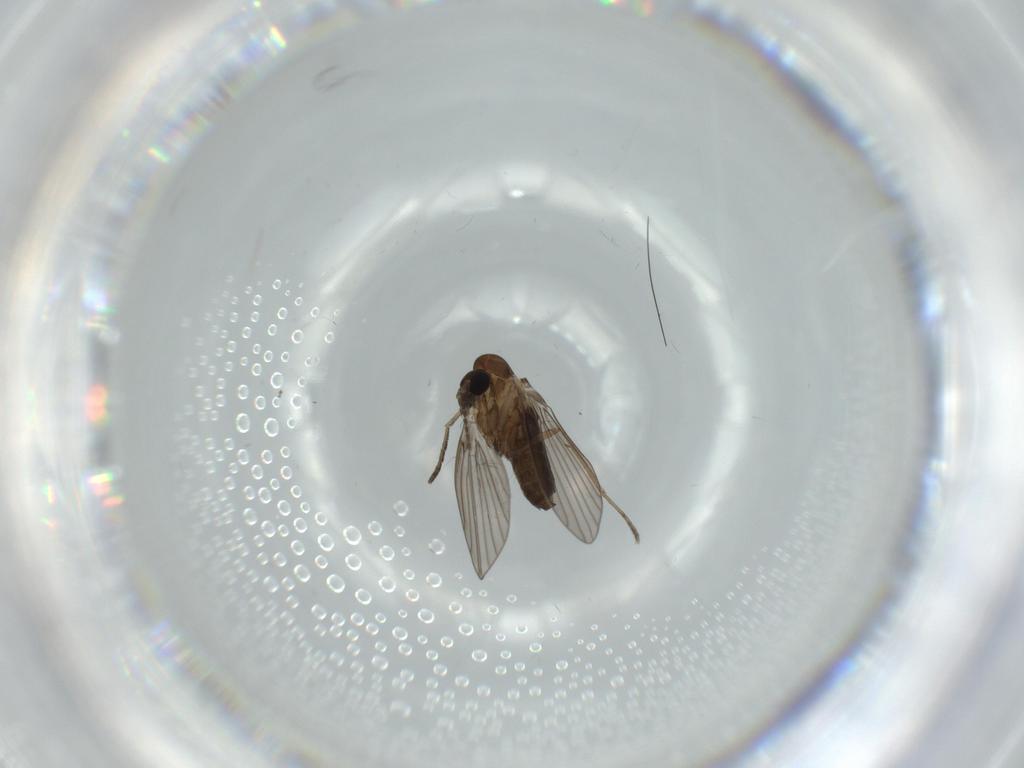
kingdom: Animalia
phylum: Arthropoda
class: Insecta
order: Diptera
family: Psychodidae
